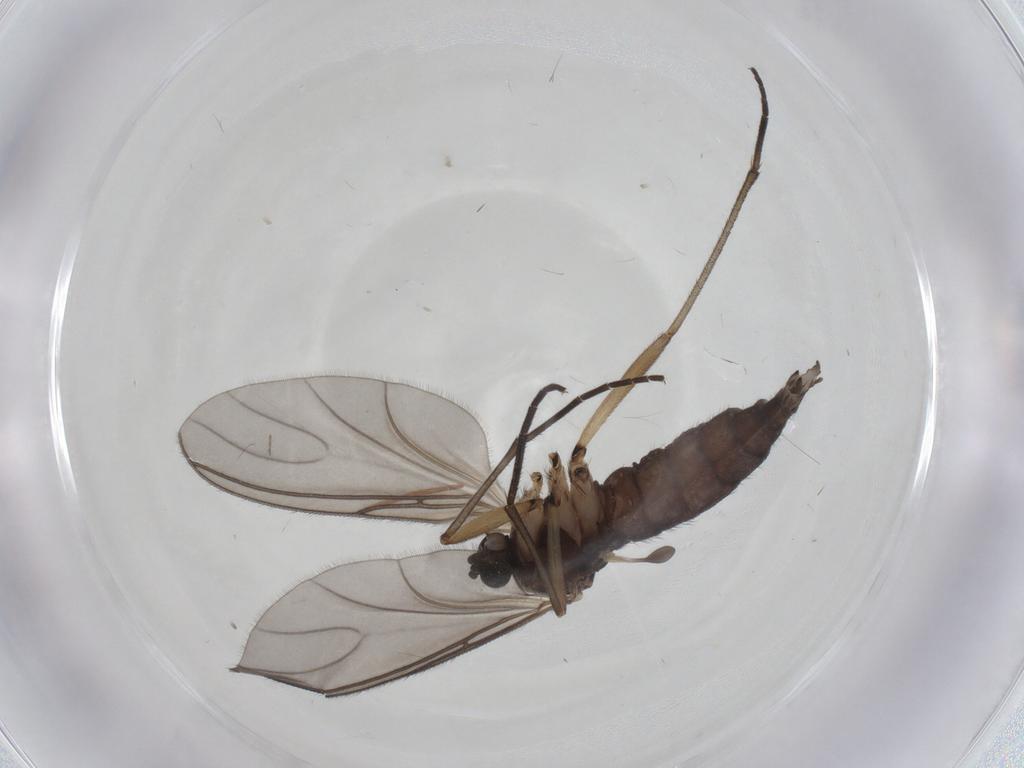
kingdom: Animalia
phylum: Arthropoda
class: Insecta
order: Diptera
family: Sciaridae
